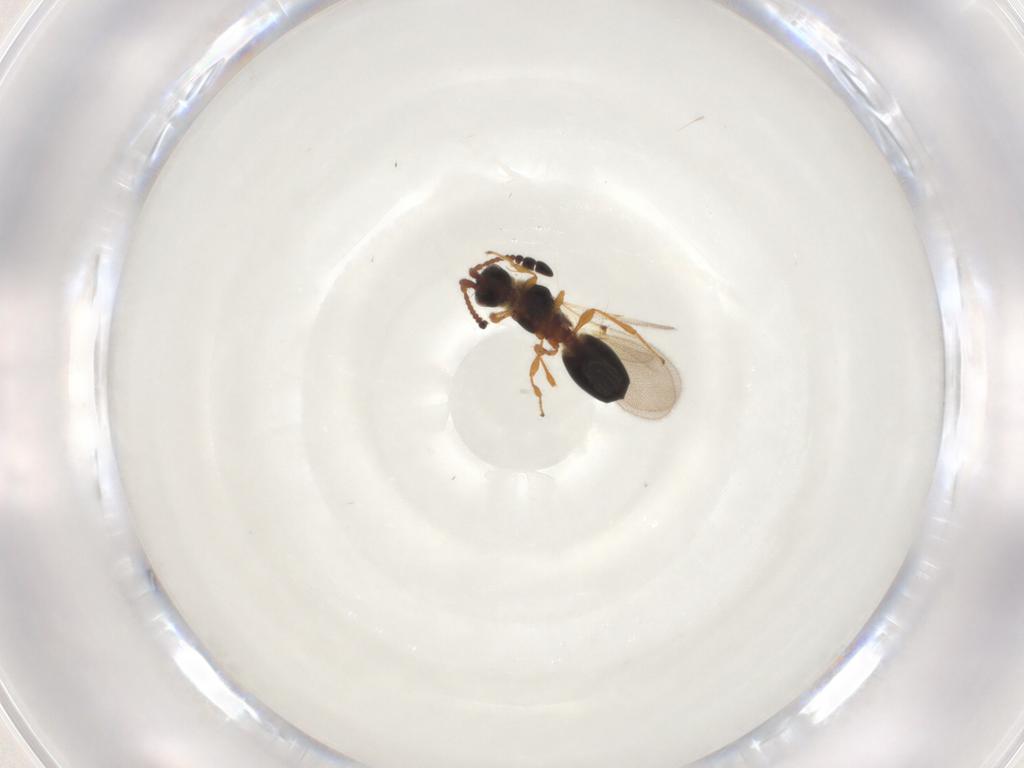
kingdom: Animalia
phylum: Arthropoda
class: Insecta
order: Hymenoptera
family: Diapriidae
